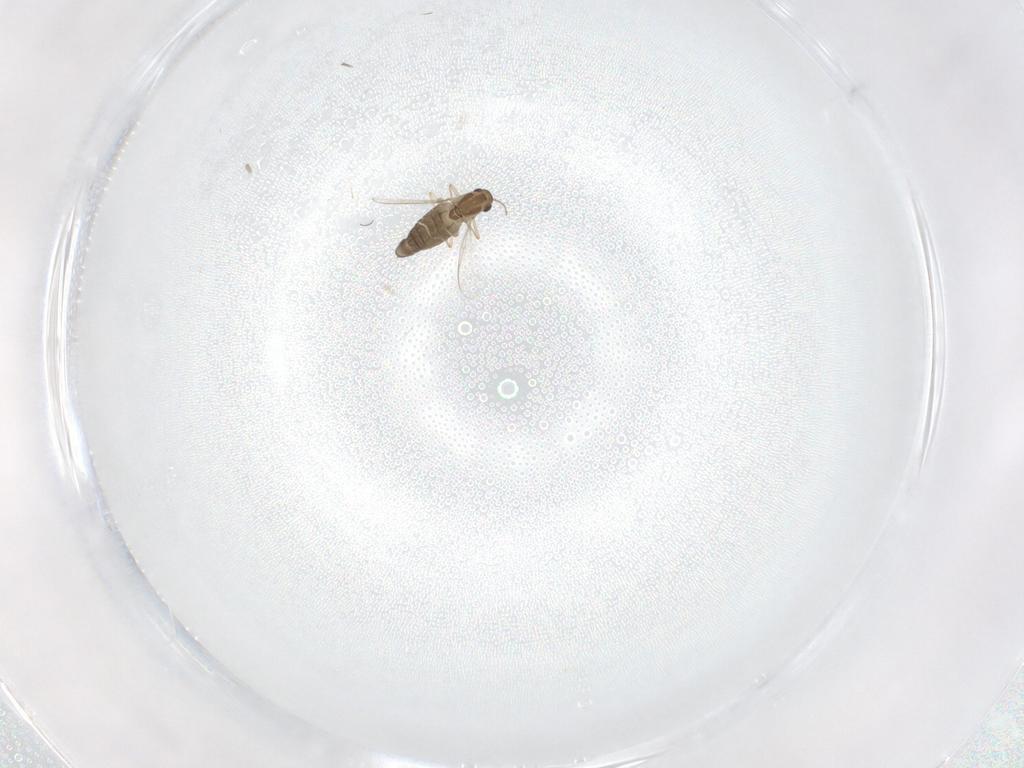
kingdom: Animalia
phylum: Arthropoda
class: Insecta
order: Diptera
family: Chironomidae
